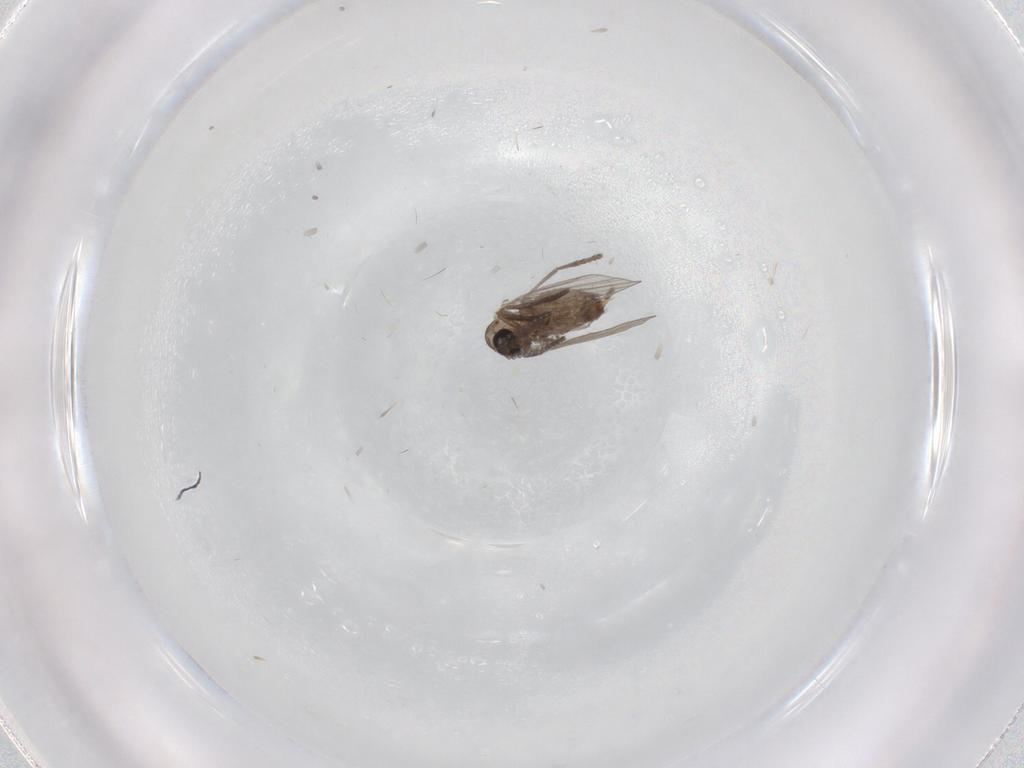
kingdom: Animalia
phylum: Arthropoda
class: Insecta
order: Diptera
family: Psychodidae
